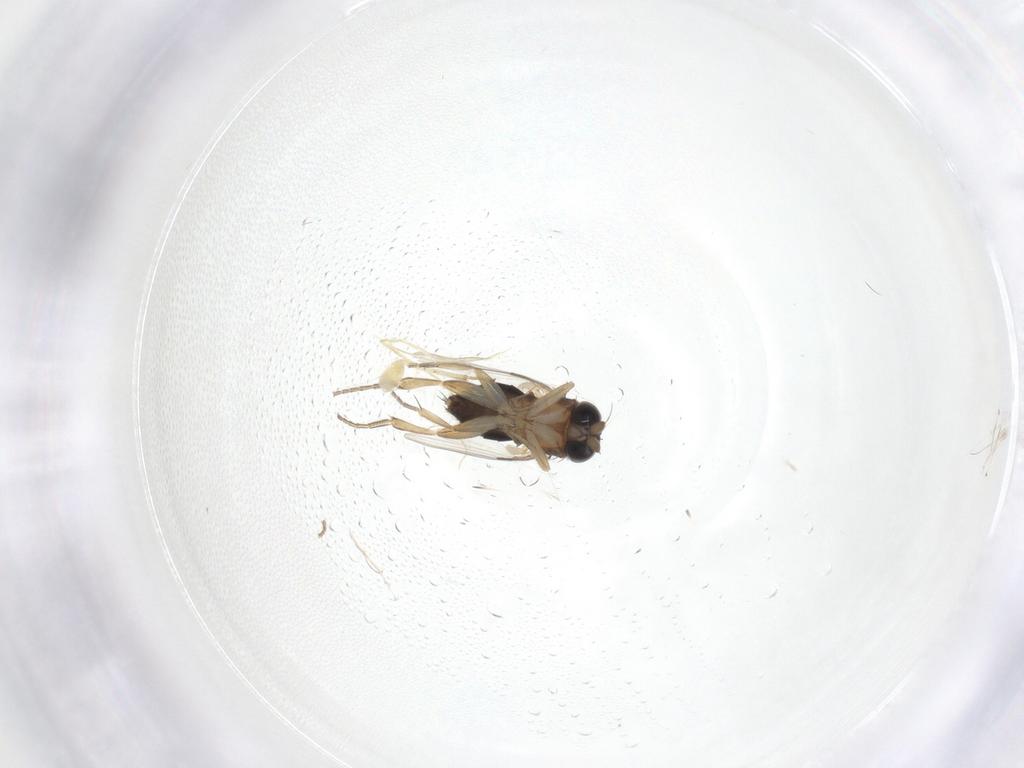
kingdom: Animalia
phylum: Arthropoda
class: Insecta
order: Diptera
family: Phoridae
